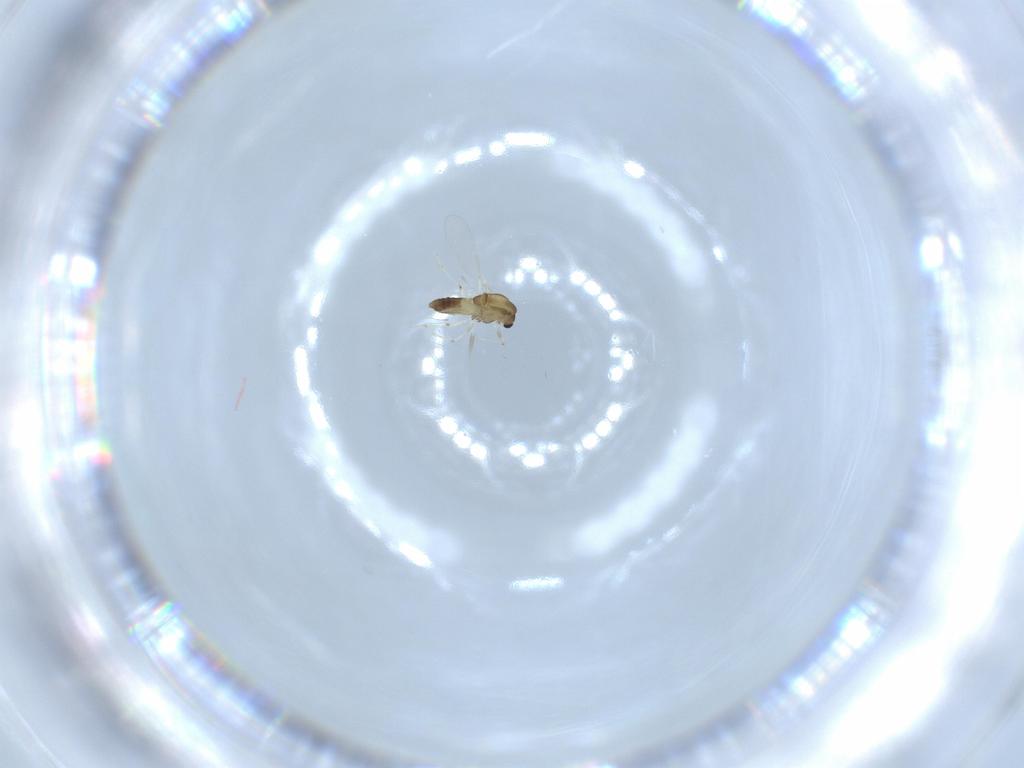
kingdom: Animalia
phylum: Arthropoda
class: Insecta
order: Diptera
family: Chironomidae
